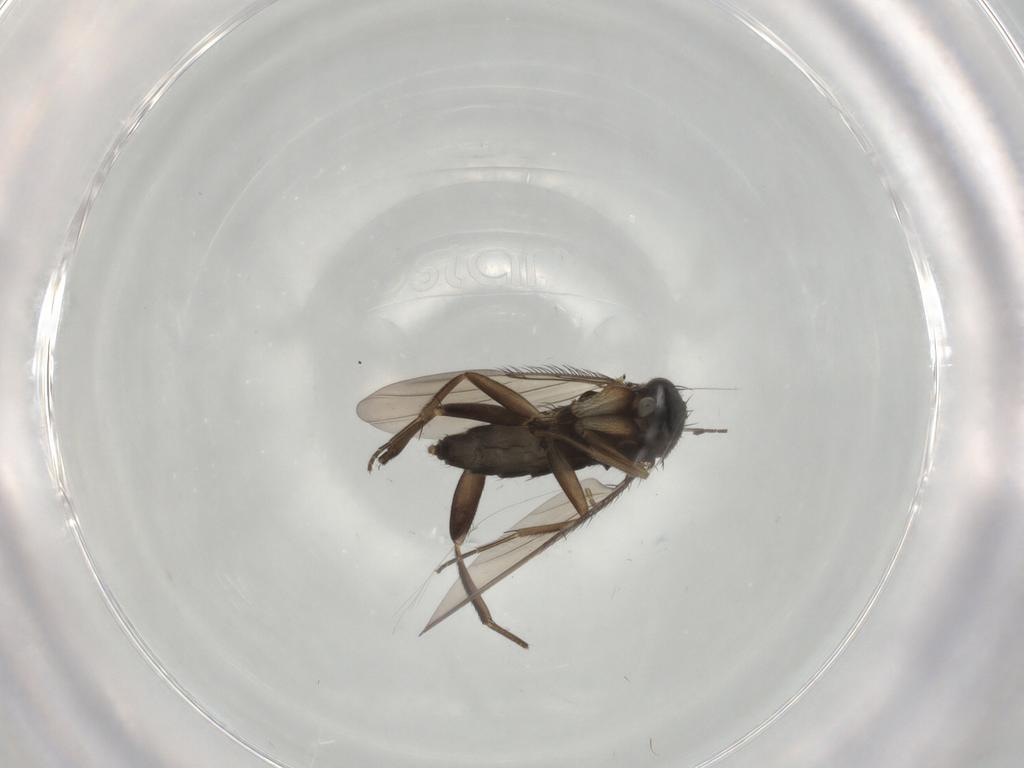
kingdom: Animalia
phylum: Arthropoda
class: Insecta
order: Diptera
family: Phoridae
